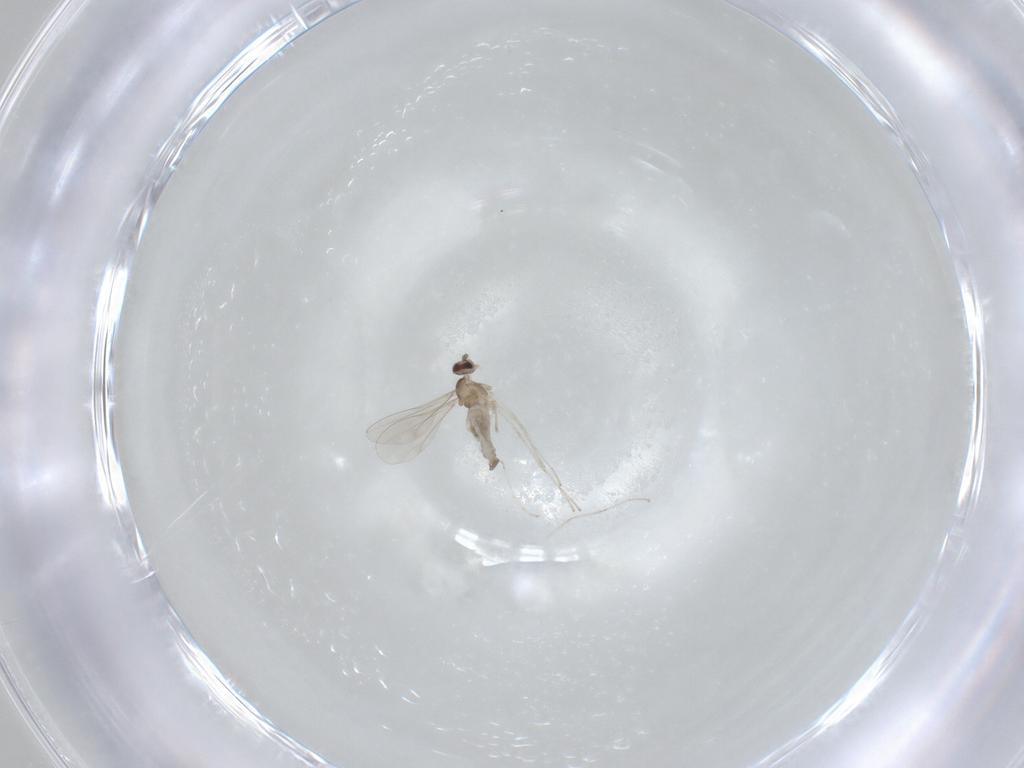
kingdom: Animalia
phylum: Arthropoda
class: Insecta
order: Diptera
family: Cecidomyiidae
